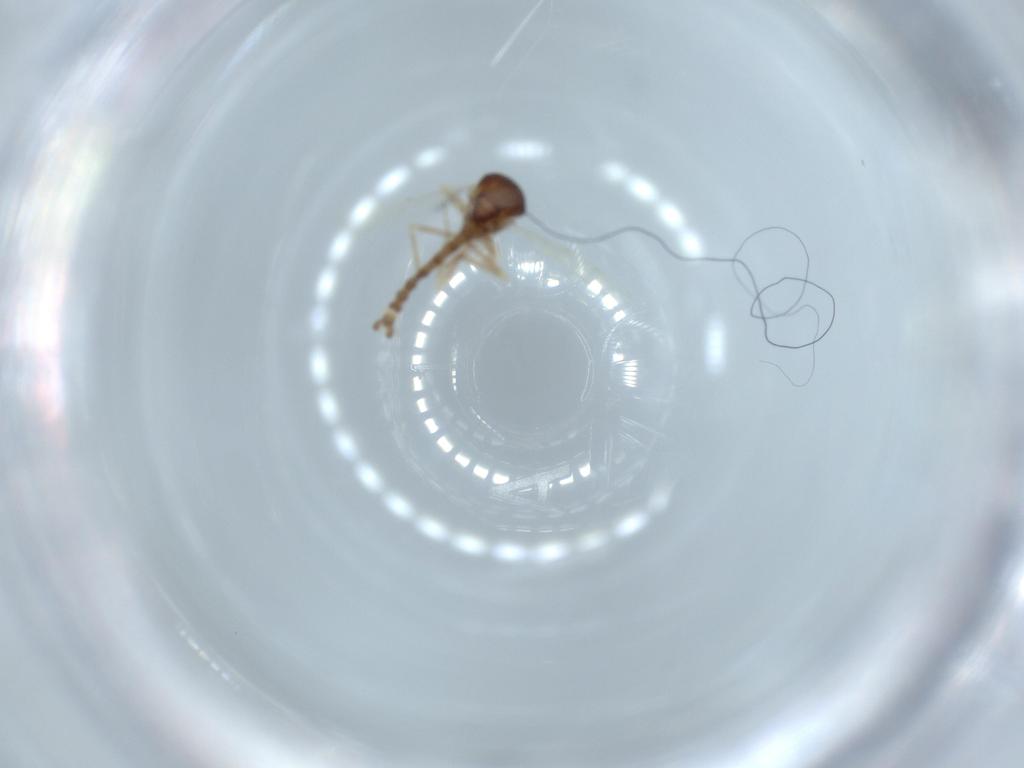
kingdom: Animalia
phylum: Arthropoda
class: Insecta
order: Diptera
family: Ceratopogonidae
